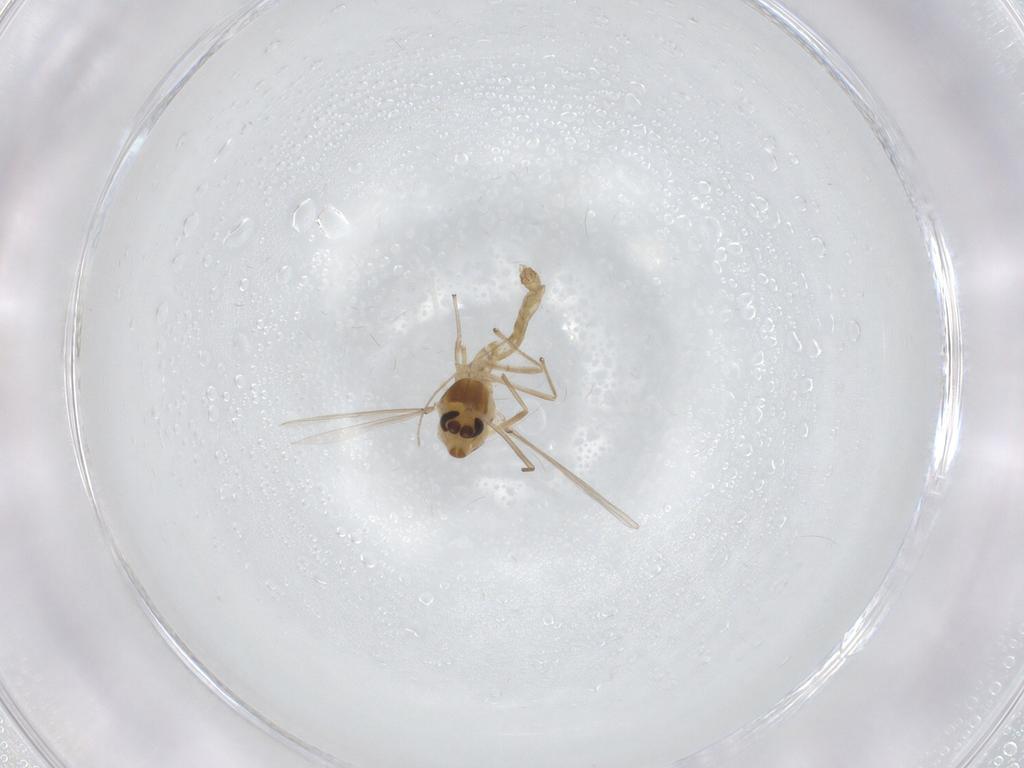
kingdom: Animalia
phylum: Arthropoda
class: Insecta
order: Diptera
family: Chironomidae
